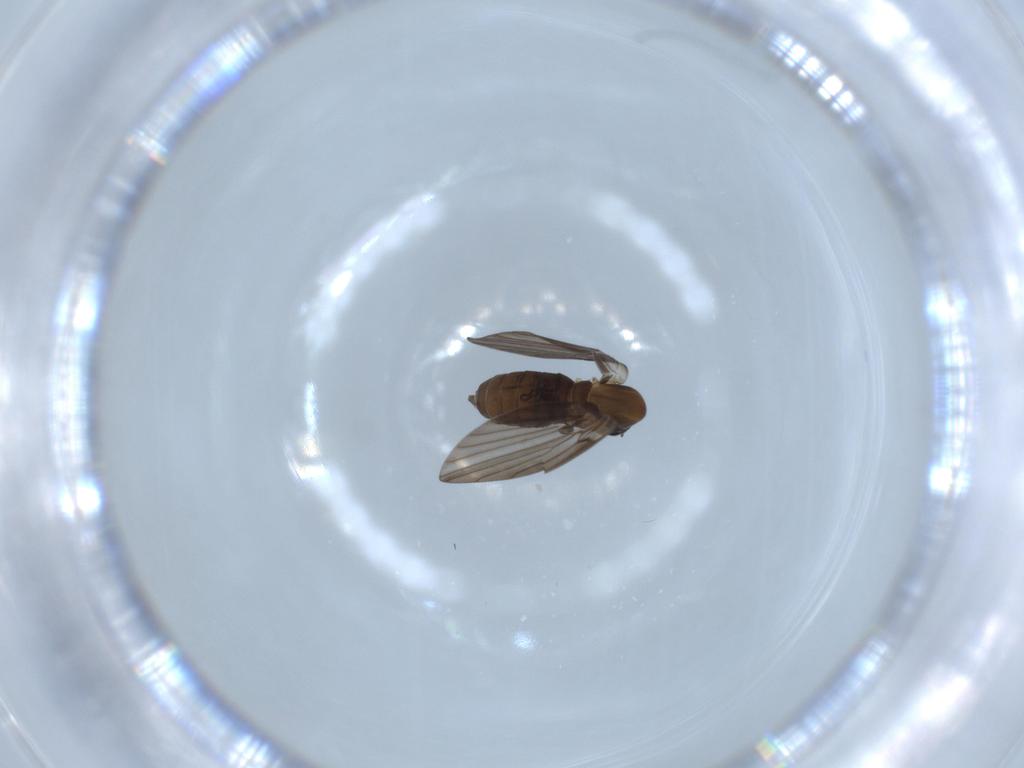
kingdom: Animalia
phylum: Arthropoda
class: Insecta
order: Diptera
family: Psychodidae
